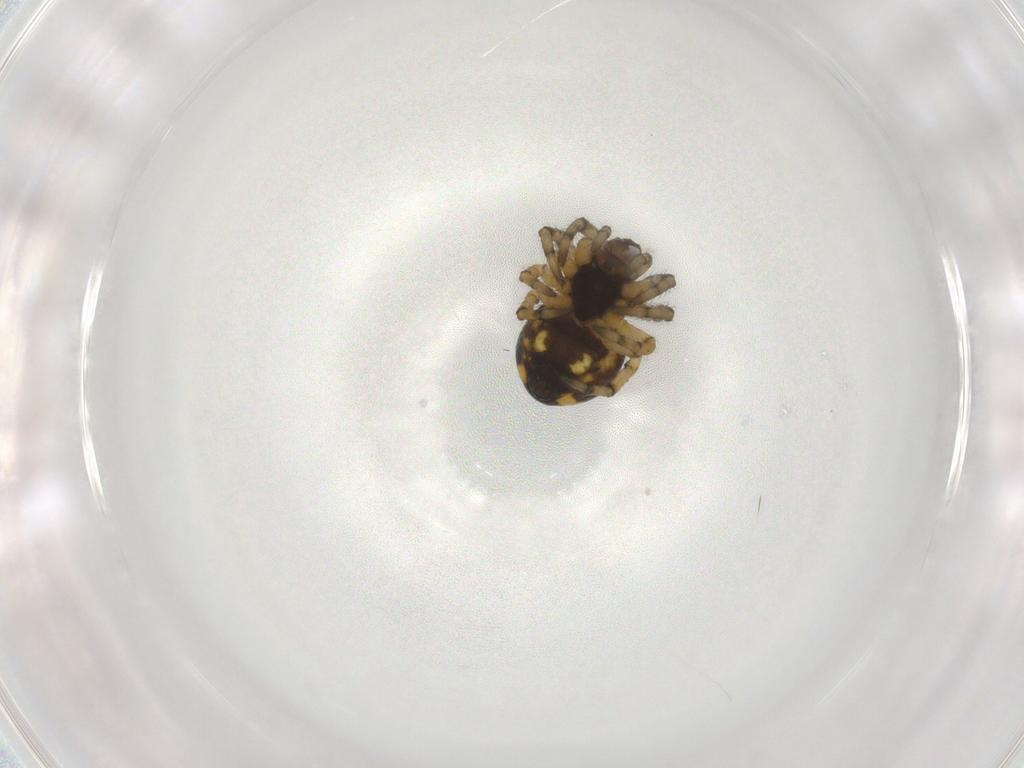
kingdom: Animalia
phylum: Arthropoda
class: Arachnida
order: Araneae
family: Araneidae
